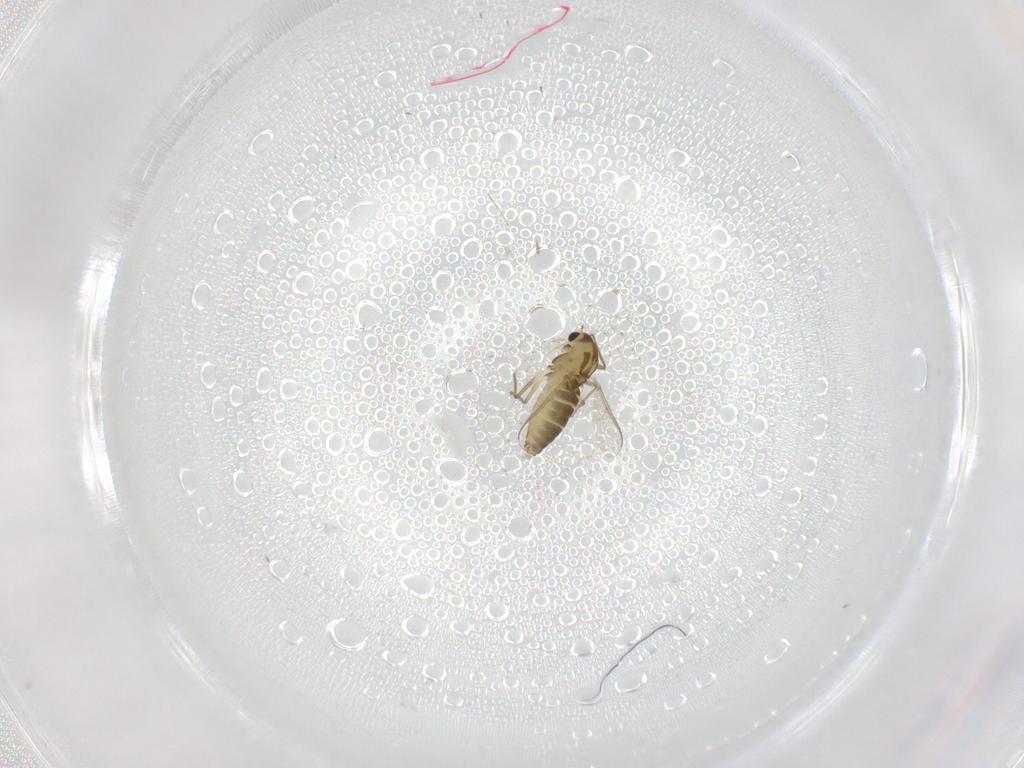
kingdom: Animalia
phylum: Arthropoda
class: Insecta
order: Diptera
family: Chironomidae
